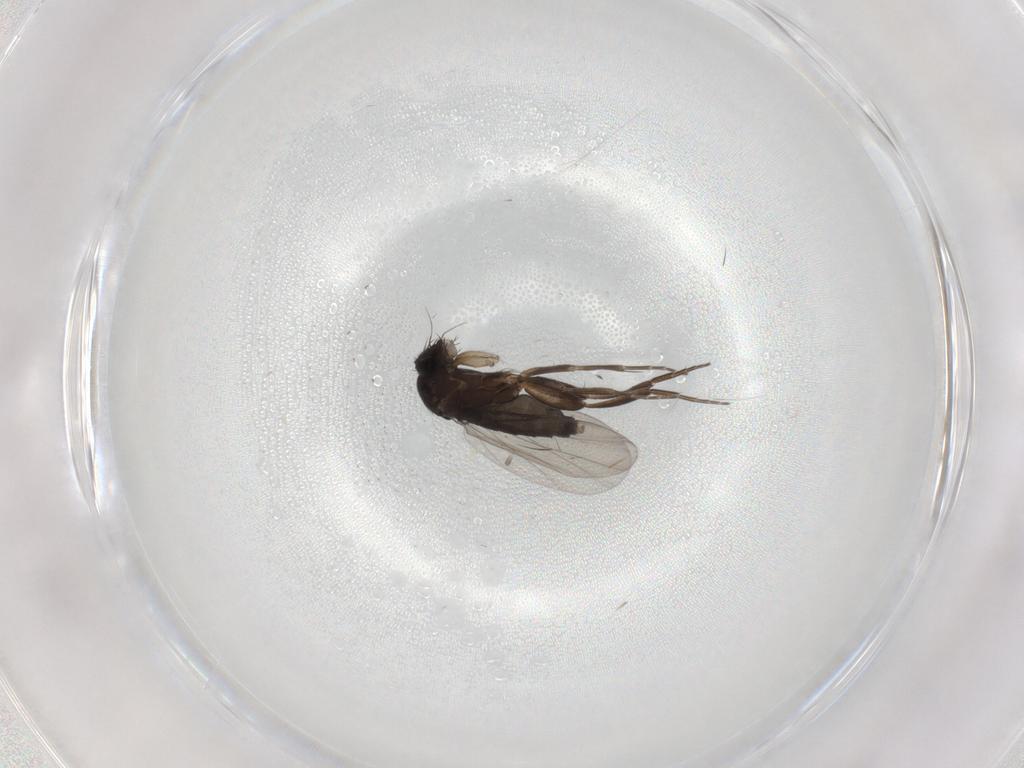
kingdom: Animalia
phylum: Arthropoda
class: Insecta
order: Diptera
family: Phoridae
